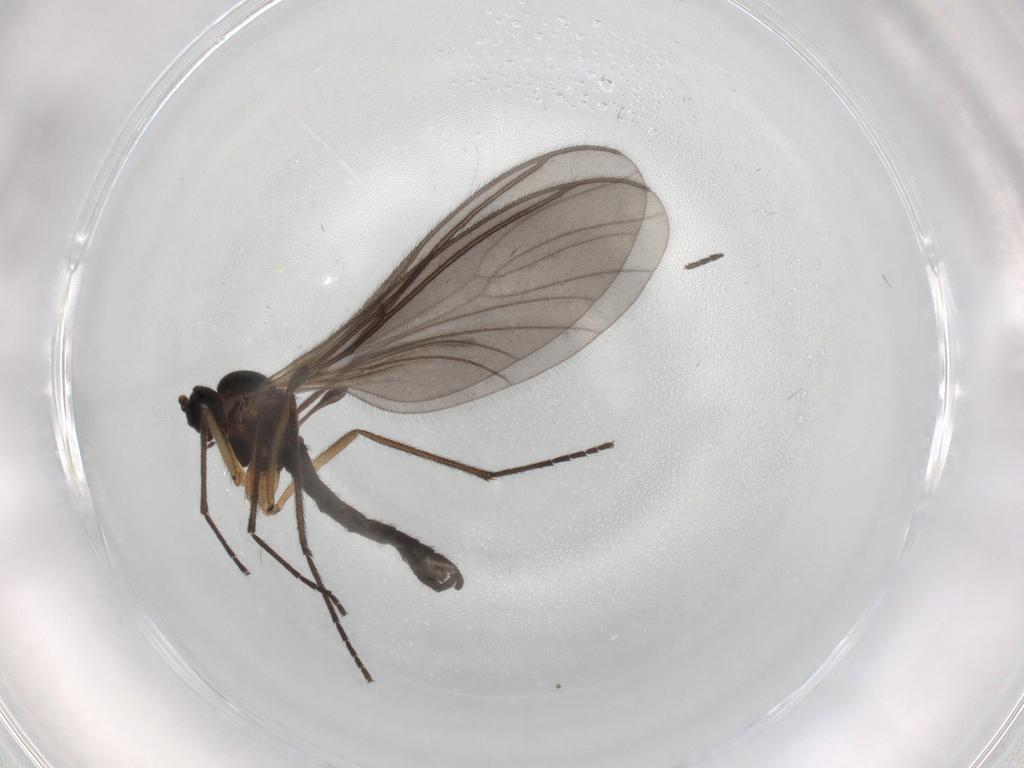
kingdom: Animalia
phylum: Arthropoda
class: Insecta
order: Diptera
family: Sciaridae
